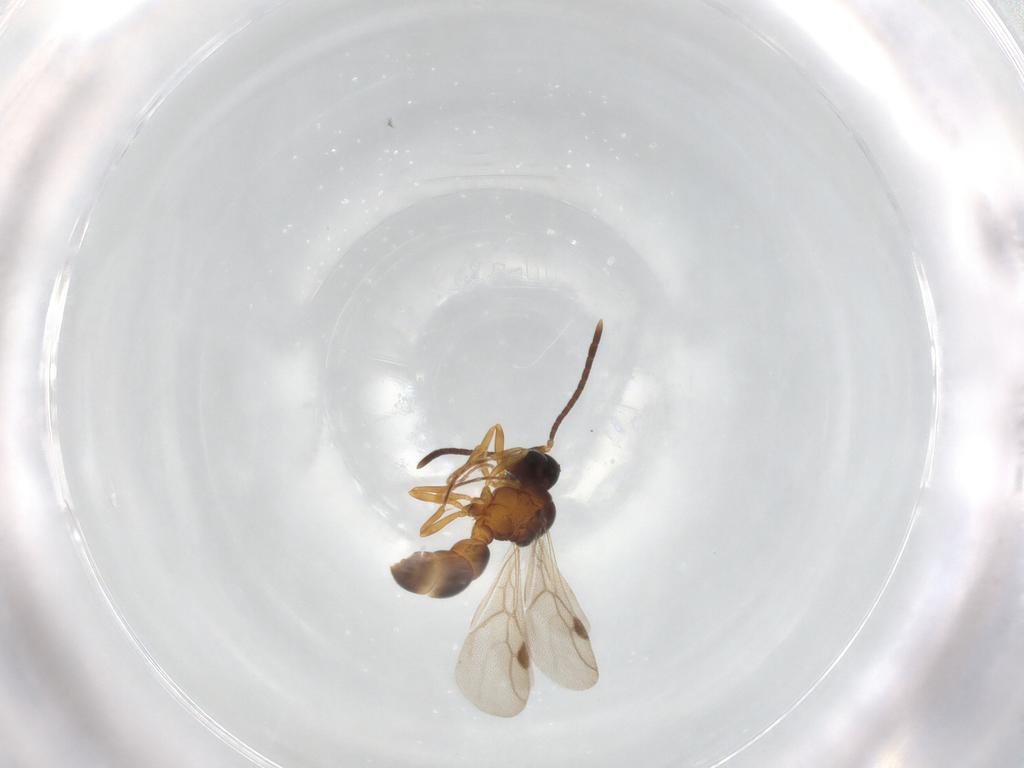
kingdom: Animalia
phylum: Arthropoda
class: Insecta
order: Hymenoptera
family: Formicidae
